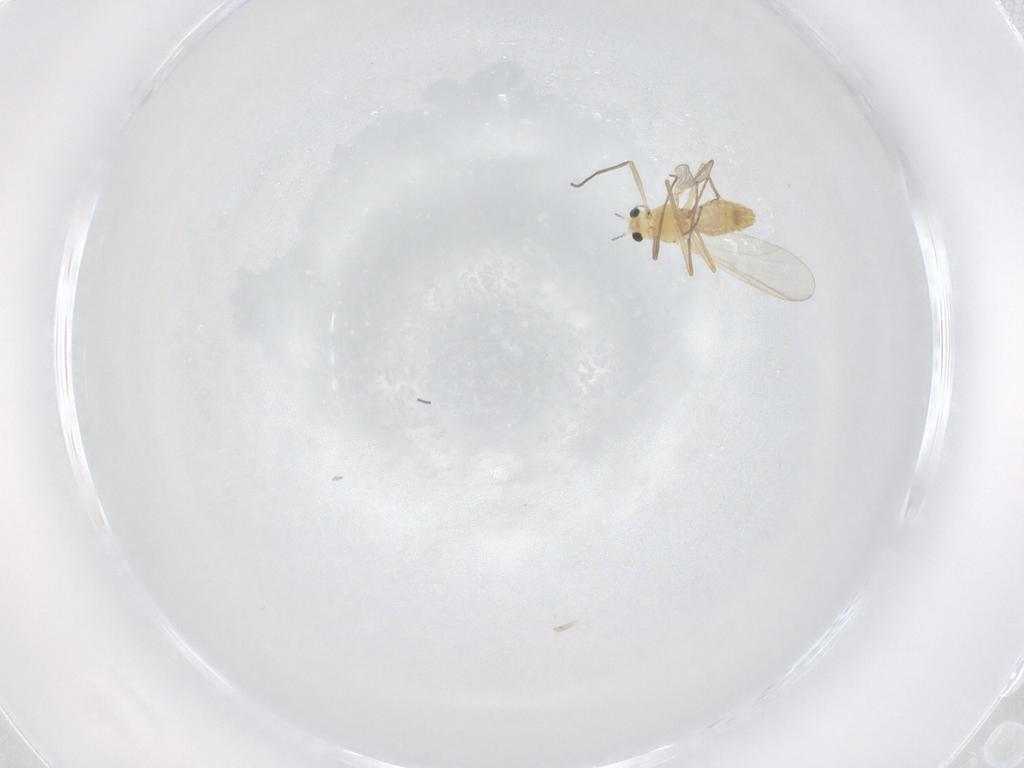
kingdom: Animalia
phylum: Arthropoda
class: Insecta
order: Diptera
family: Chironomidae
